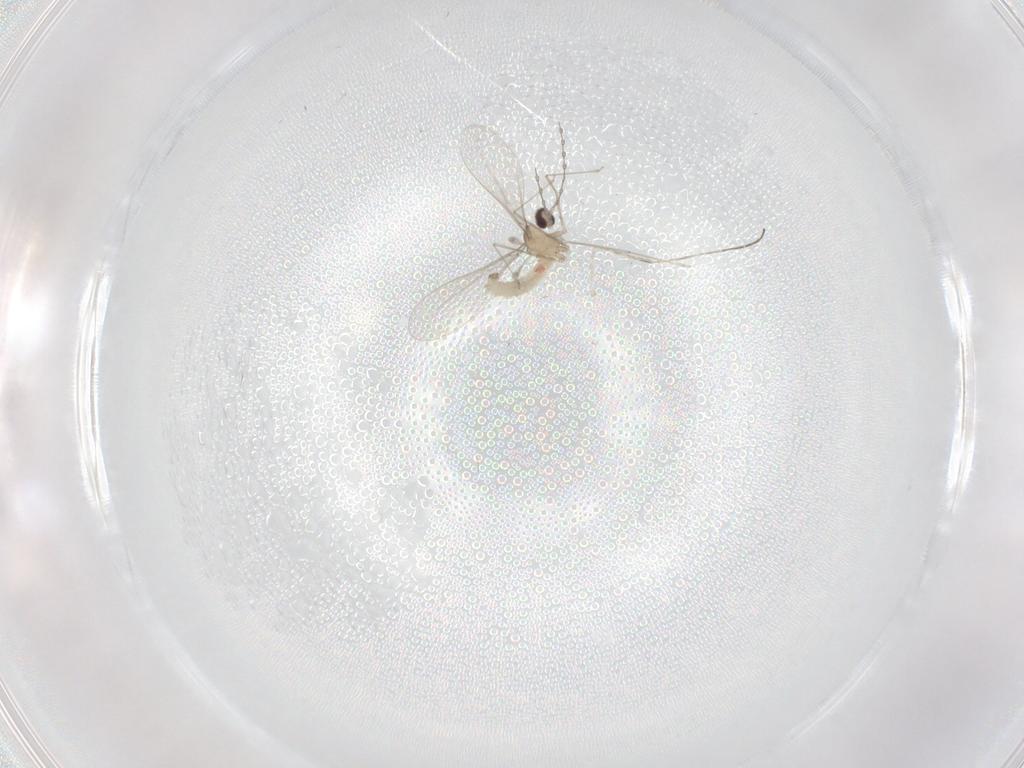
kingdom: Animalia
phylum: Arthropoda
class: Insecta
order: Diptera
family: Cecidomyiidae
